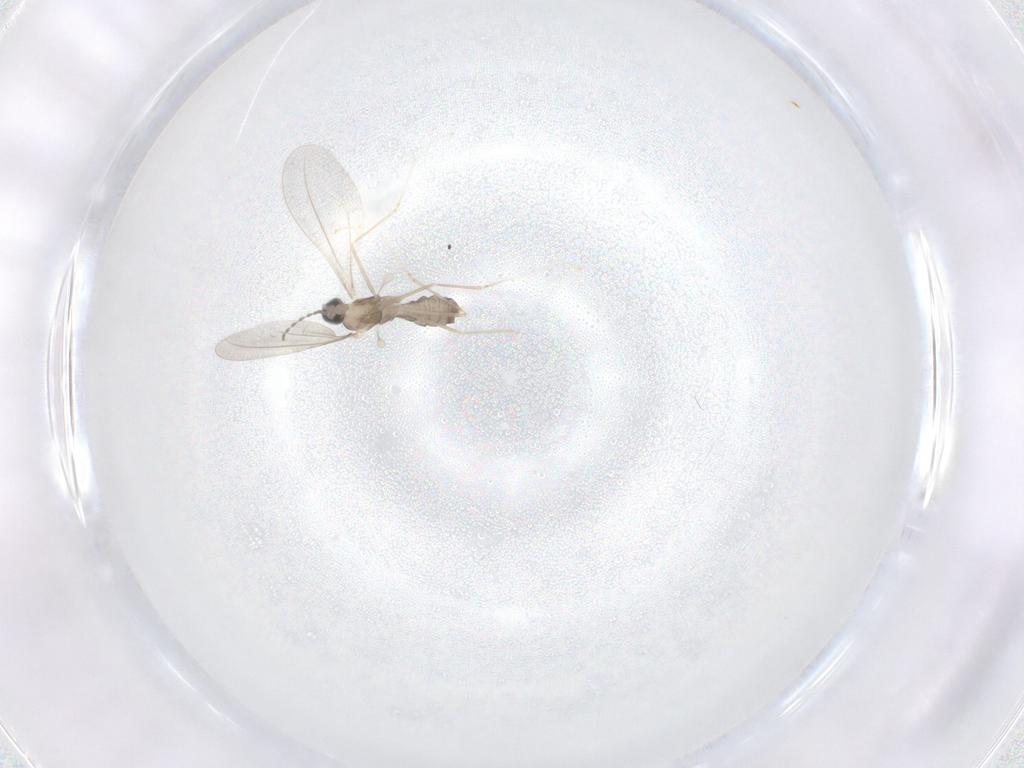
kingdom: Animalia
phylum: Arthropoda
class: Insecta
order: Diptera
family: Cecidomyiidae
